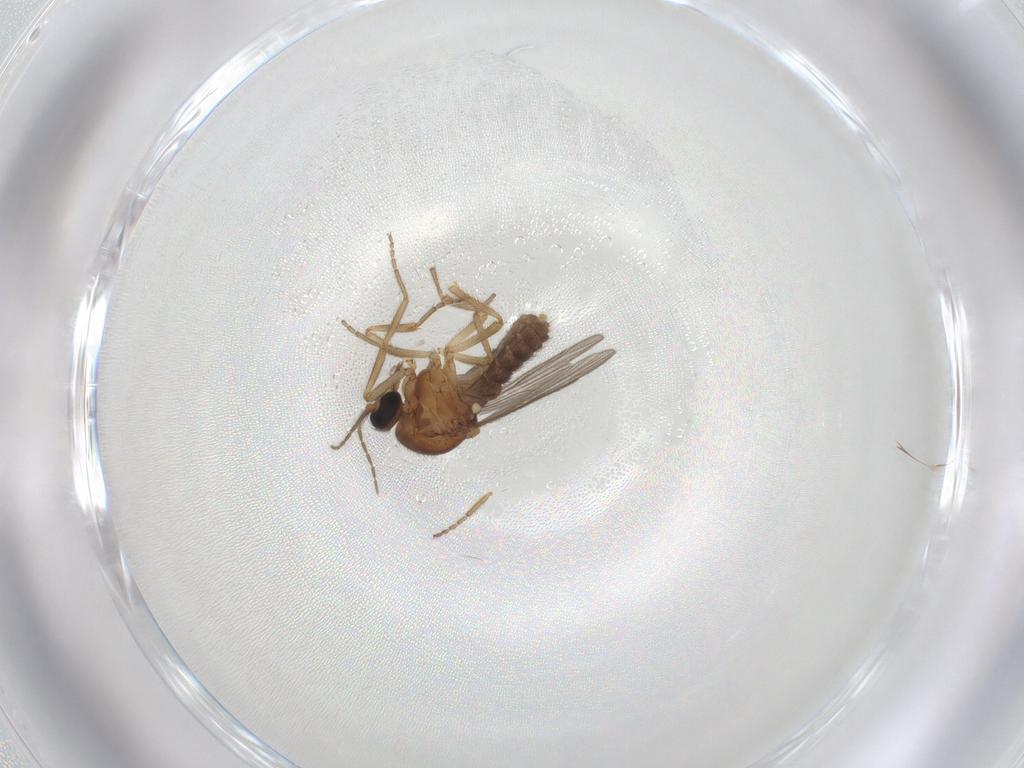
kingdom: Animalia
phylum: Arthropoda
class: Insecta
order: Diptera
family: Ceratopogonidae
